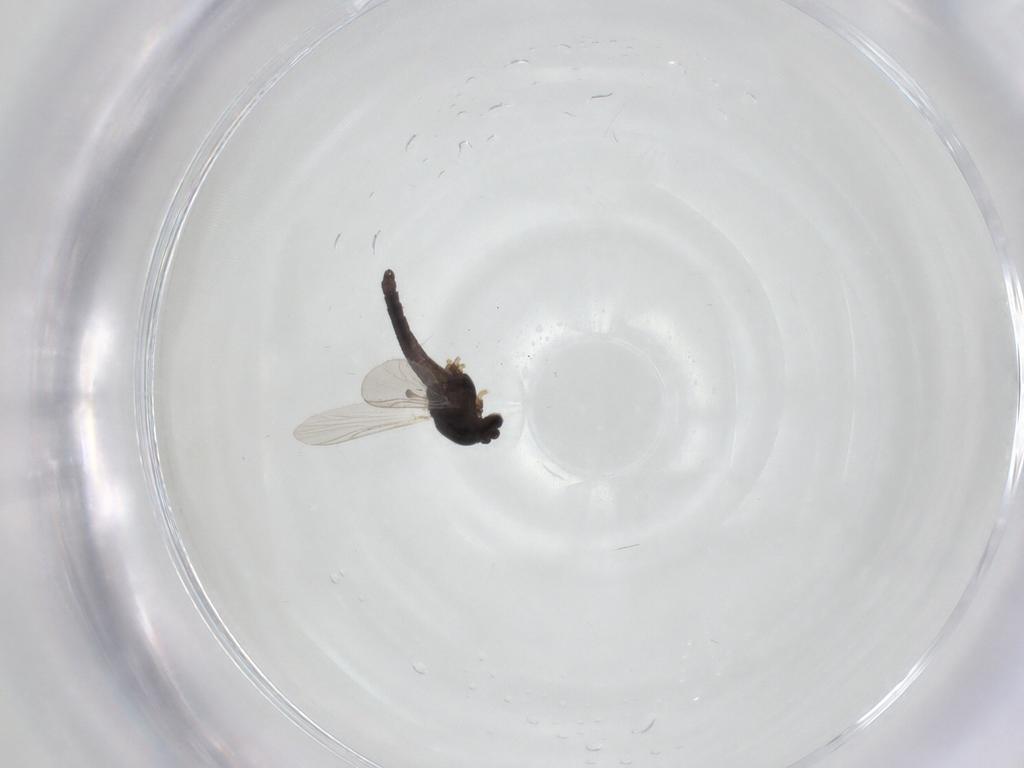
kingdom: Animalia
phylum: Arthropoda
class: Insecta
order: Diptera
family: Chironomidae
